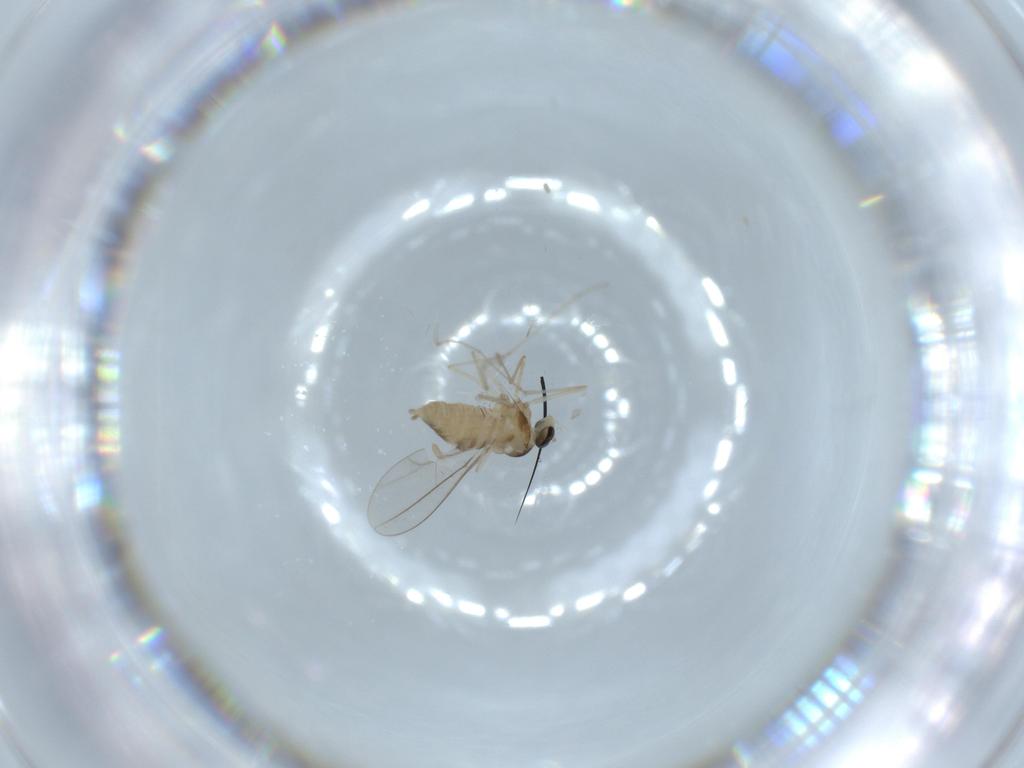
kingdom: Animalia
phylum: Arthropoda
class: Insecta
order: Diptera
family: Cecidomyiidae
